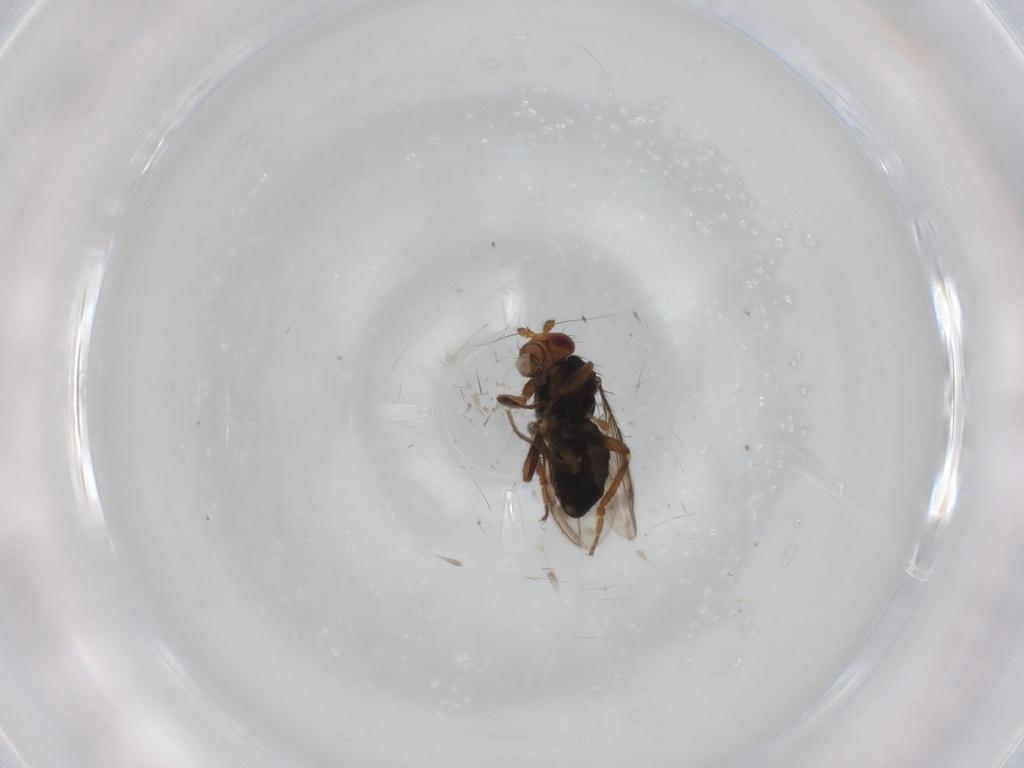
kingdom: Animalia
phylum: Arthropoda
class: Insecta
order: Diptera
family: Sphaeroceridae
